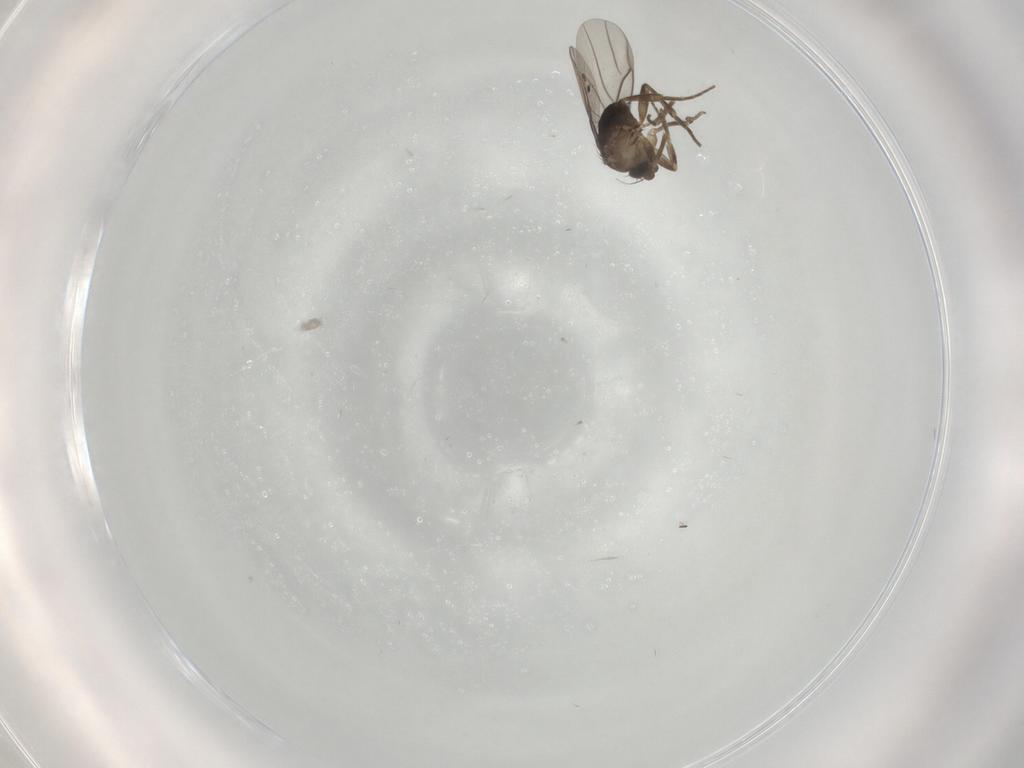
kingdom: Animalia
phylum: Arthropoda
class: Insecta
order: Diptera
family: Phoridae
